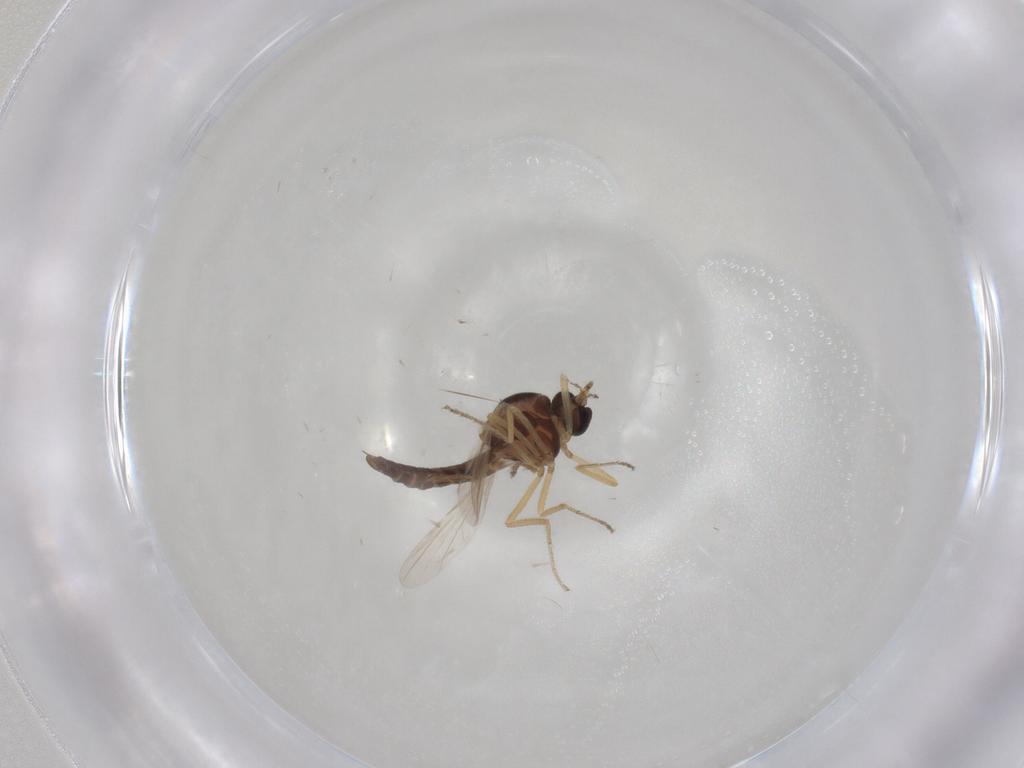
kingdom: Animalia
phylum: Arthropoda
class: Insecta
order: Diptera
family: Ceratopogonidae
